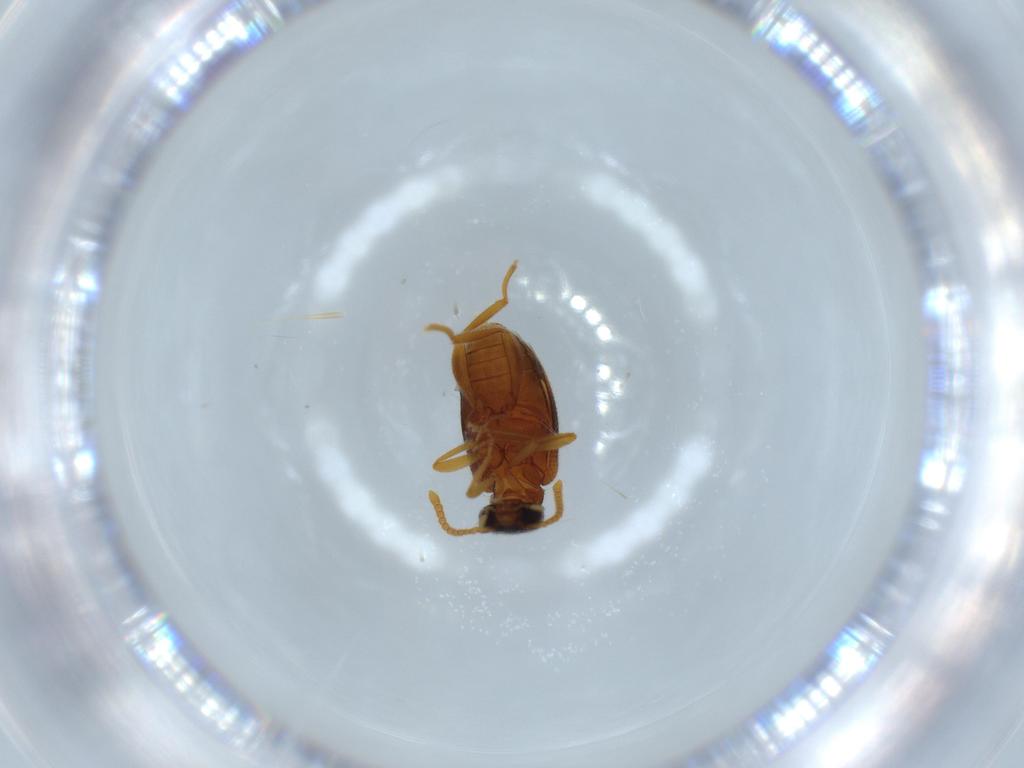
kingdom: Animalia
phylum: Arthropoda
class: Insecta
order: Coleoptera
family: Aderidae
